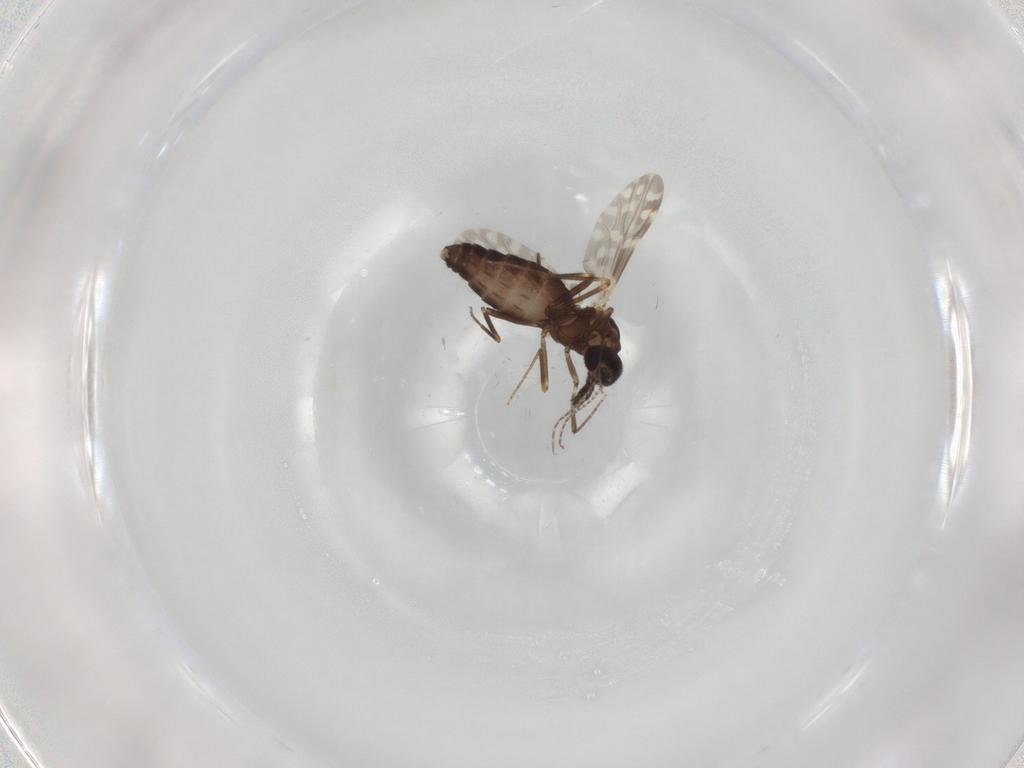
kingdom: Animalia
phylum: Arthropoda
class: Insecta
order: Diptera
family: Ceratopogonidae
